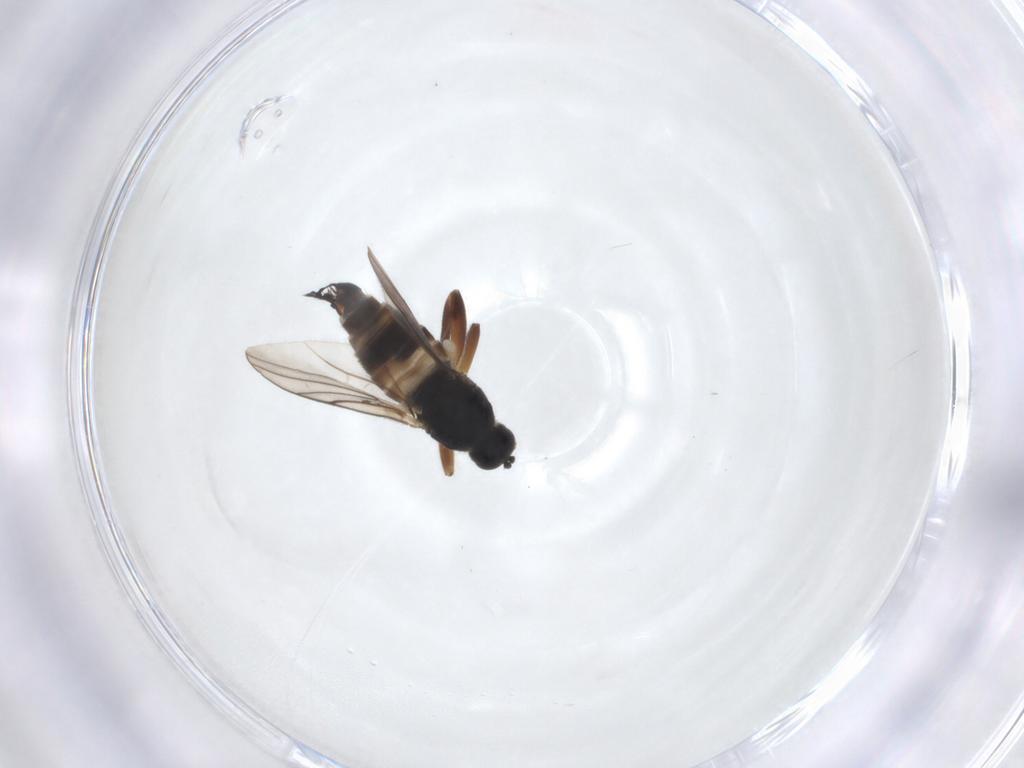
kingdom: Animalia
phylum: Arthropoda
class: Insecta
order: Diptera
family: Hybotidae
